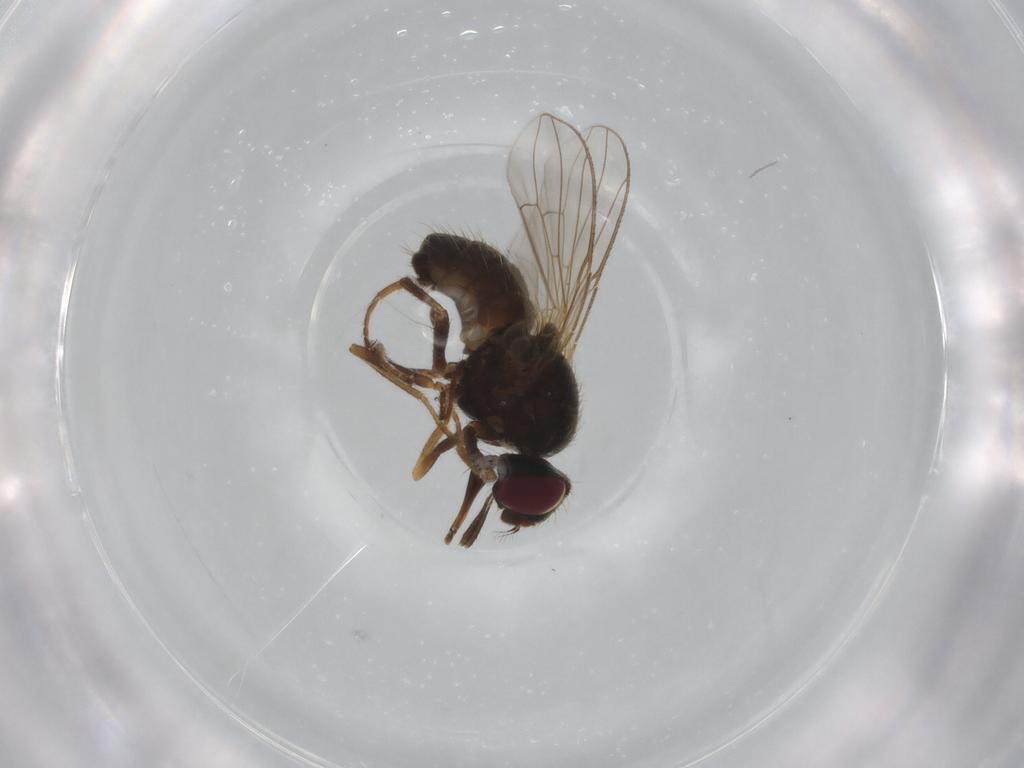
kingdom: Animalia
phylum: Arthropoda
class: Insecta
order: Diptera
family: Muscidae
